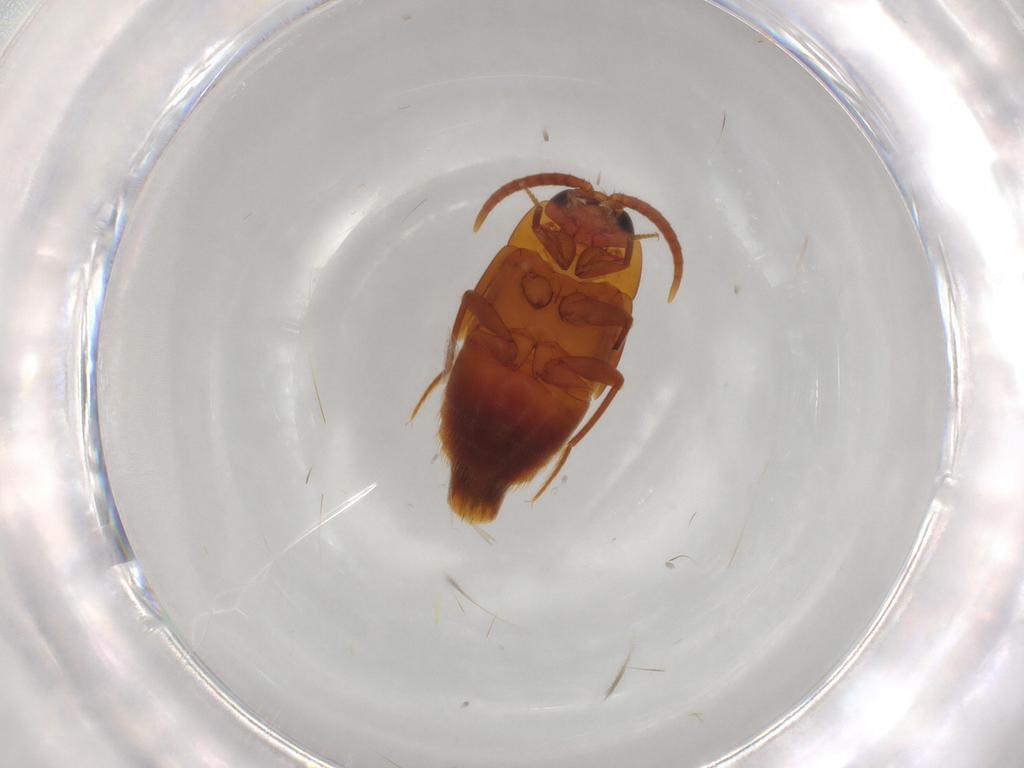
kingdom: Animalia
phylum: Arthropoda
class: Insecta
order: Coleoptera
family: Staphylinidae
